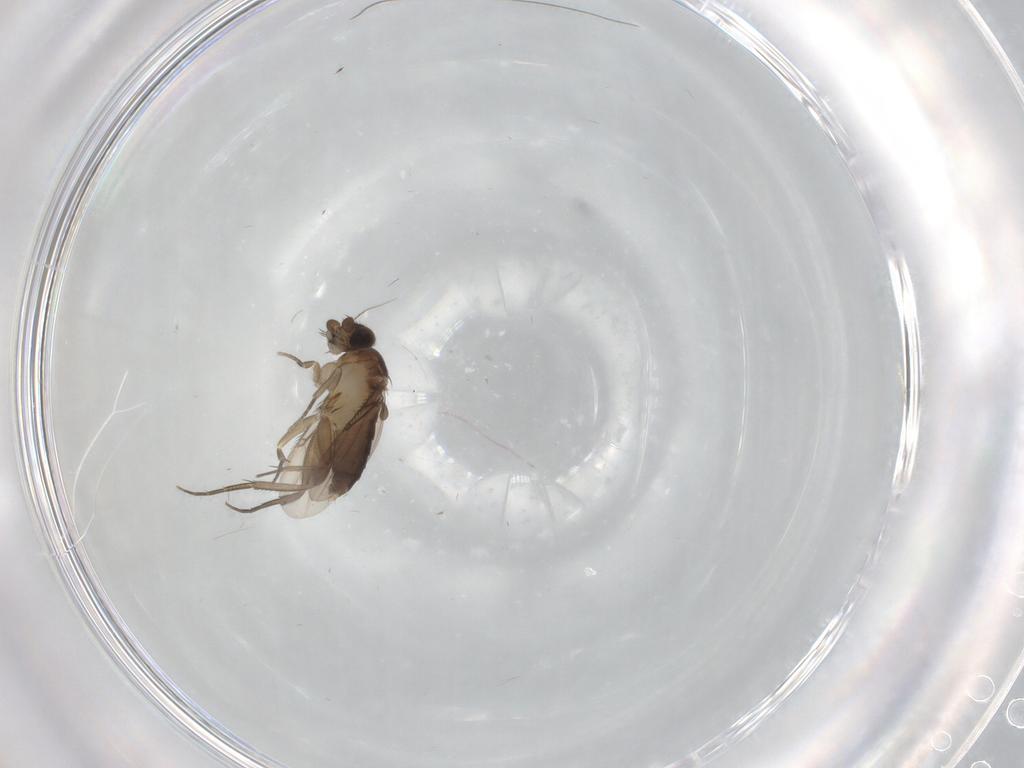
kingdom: Animalia
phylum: Arthropoda
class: Insecta
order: Diptera
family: Phoridae
